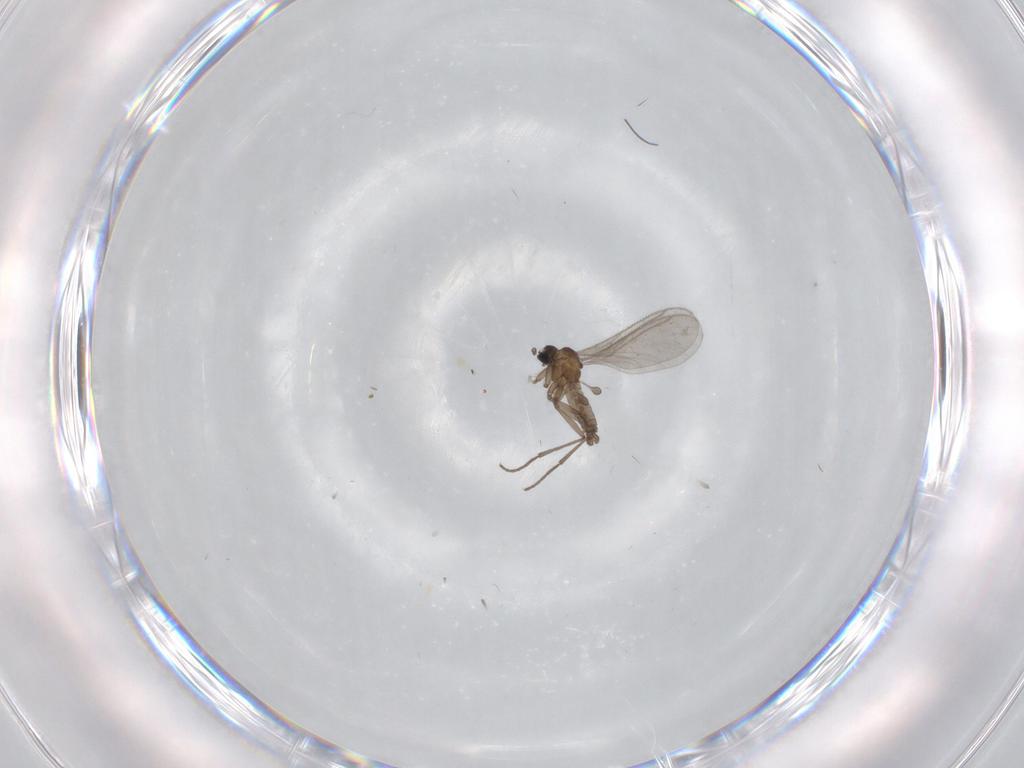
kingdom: Animalia
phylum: Arthropoda
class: Insecta
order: Diptera
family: Sciaridae
